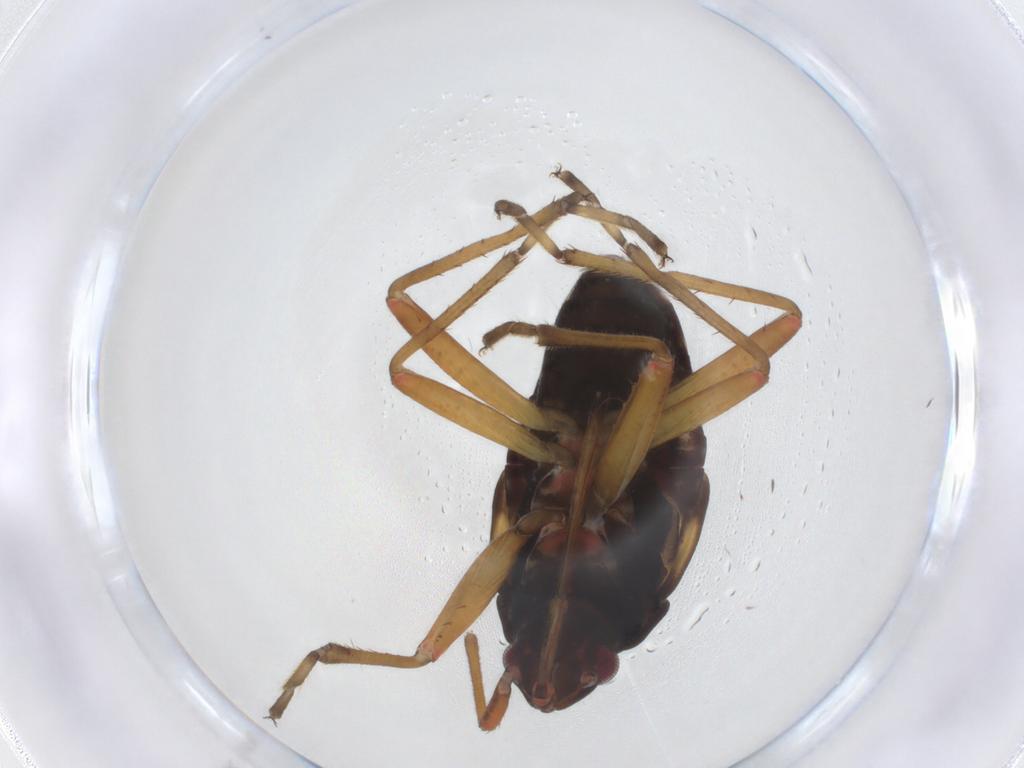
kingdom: Animalia
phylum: Arthropoda
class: Insecta
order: Hemiptera
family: Rhyparochromidae
